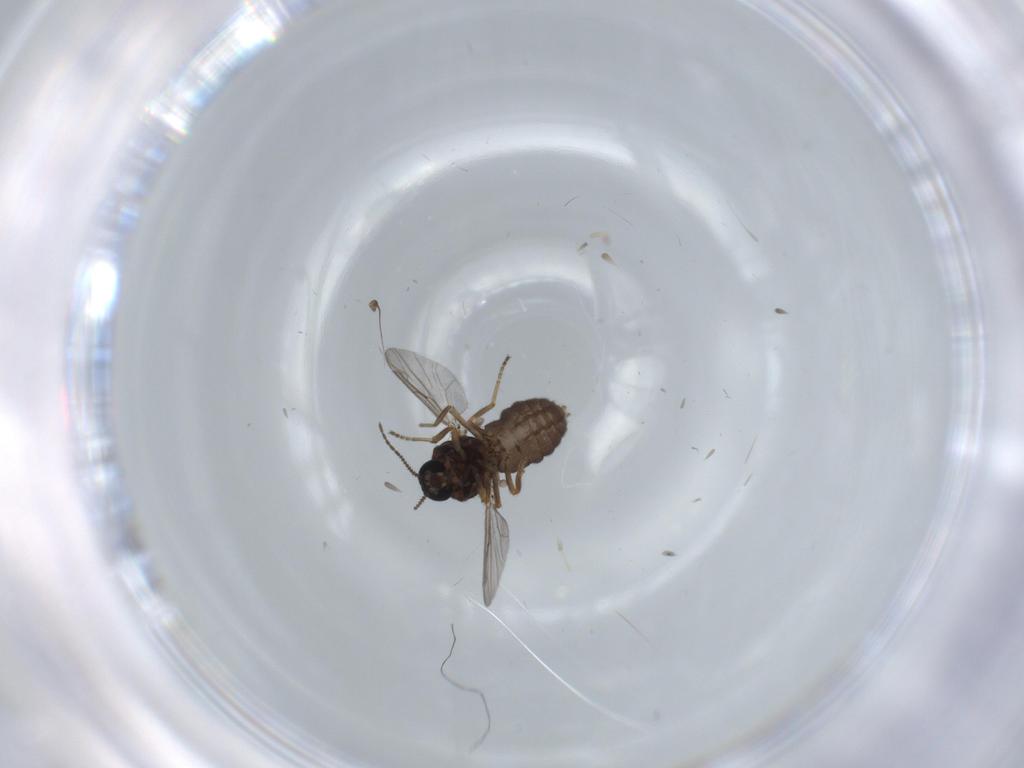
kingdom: Animalia
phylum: Arthropoda
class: Insecta
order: Diptera
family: Ceratopogonidae
